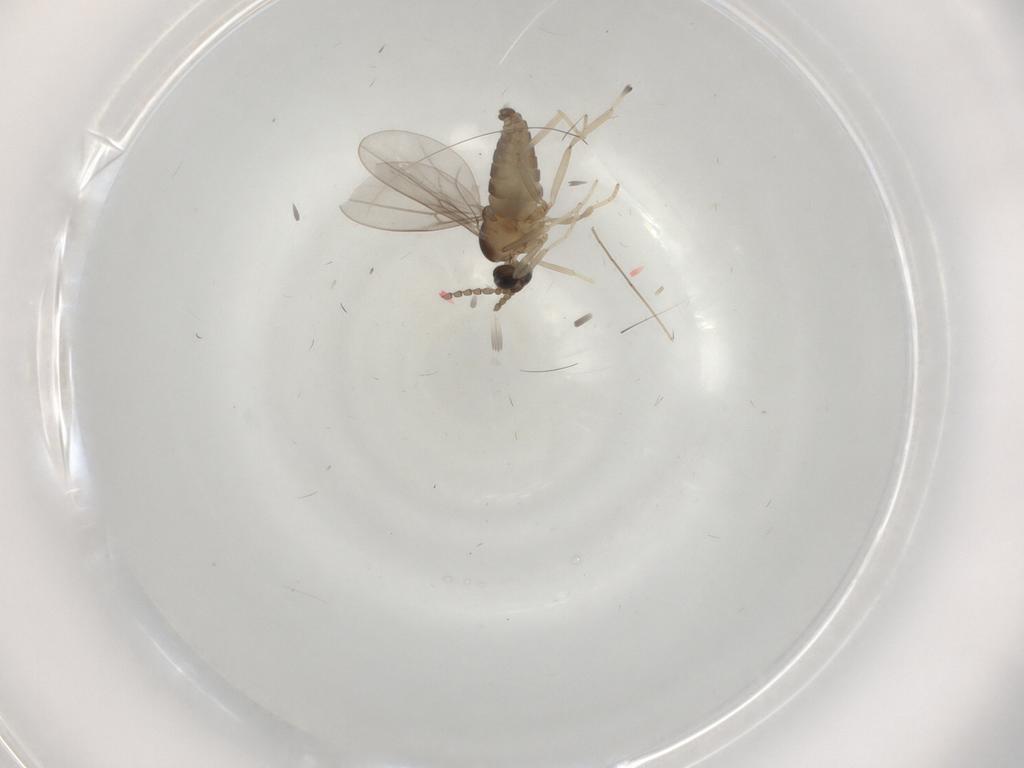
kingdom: Animalia
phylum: Arthropoda
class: Insecta
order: Diptera
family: Cecidomyiidae
